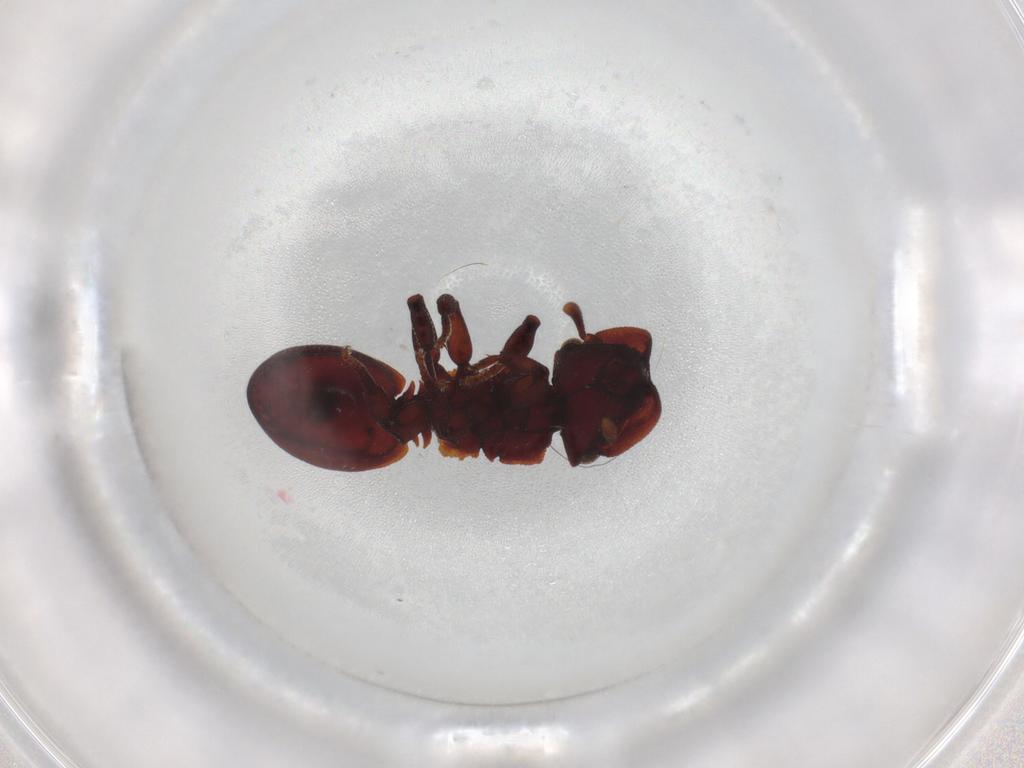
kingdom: Animalia
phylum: Arthropoda
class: Insecta
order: Hymenoptera
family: Formicidae
